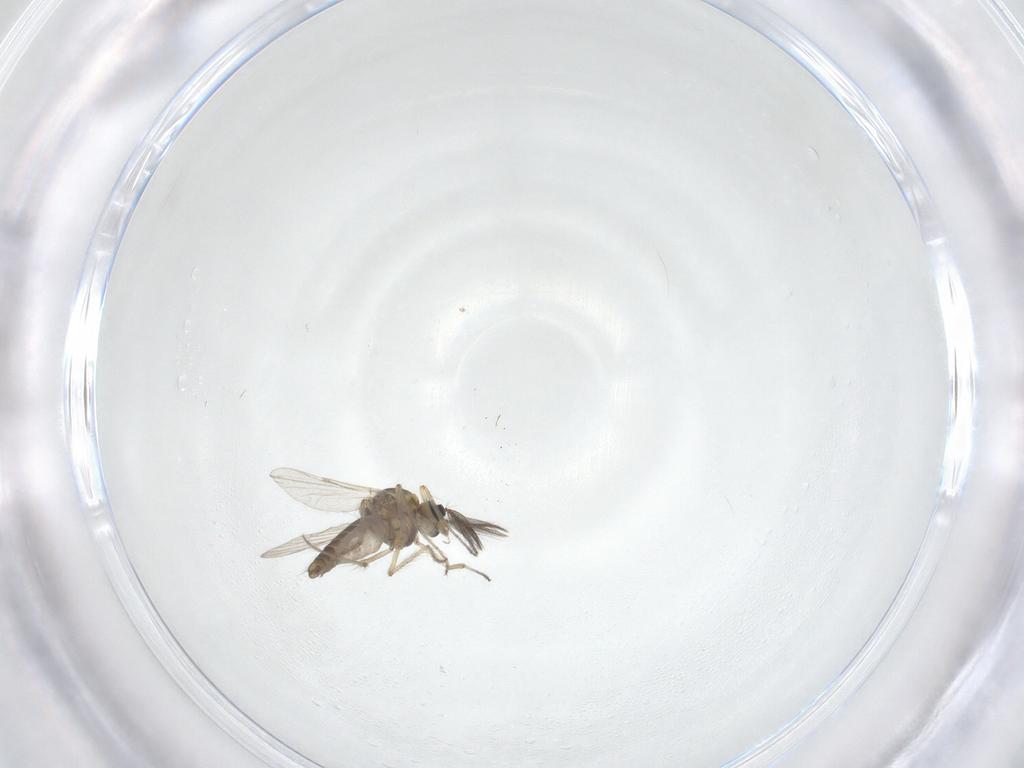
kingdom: Animalia
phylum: Arthropoda
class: Insecta
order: Diptera
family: Ceratopogonidae
